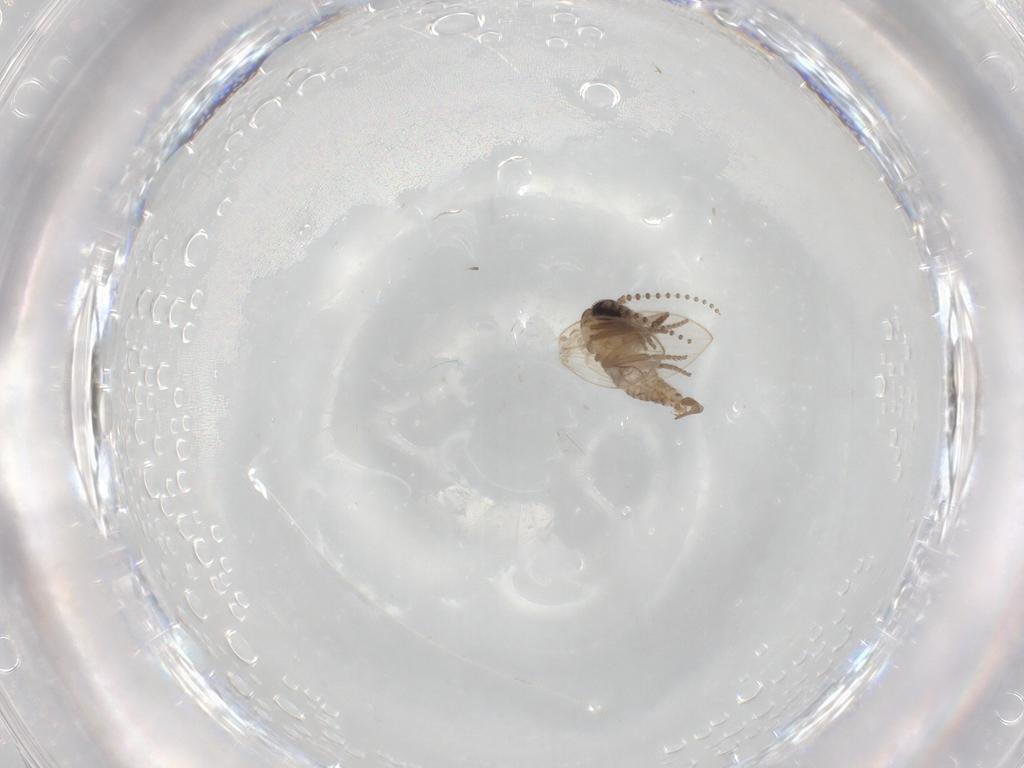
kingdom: Animalia
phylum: Arthropoda
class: Insecta
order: Diptera
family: Psychodidae
